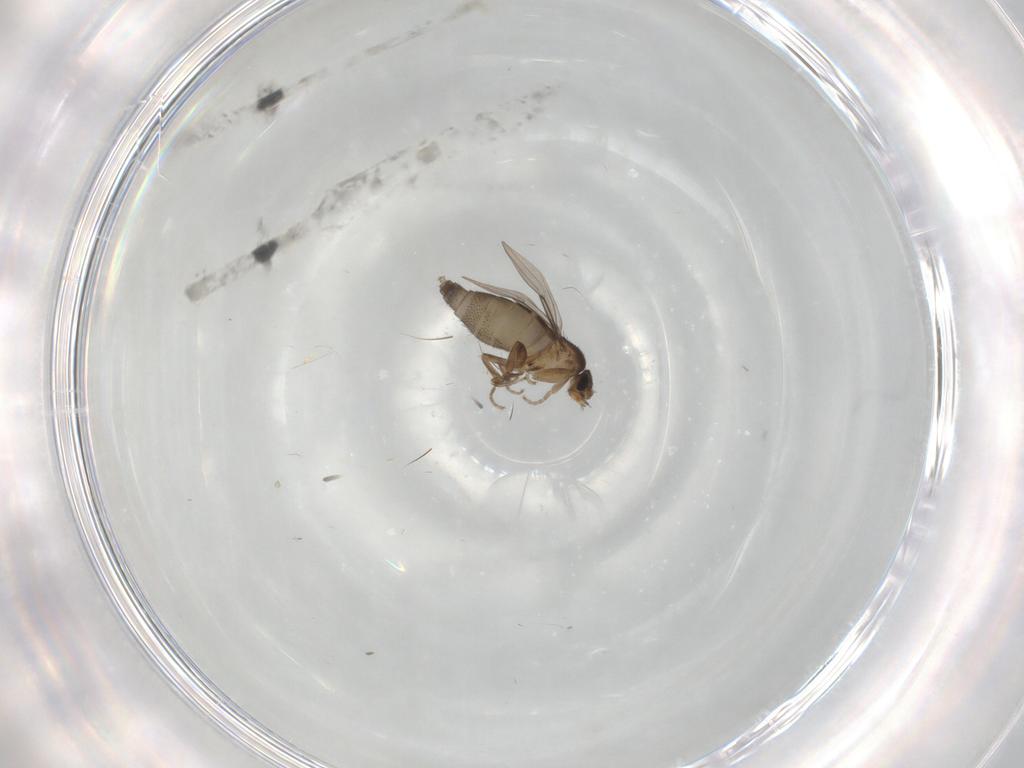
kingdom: Animalia
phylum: Arthropoda
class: Insecta
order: Diptera
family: Phoridae
